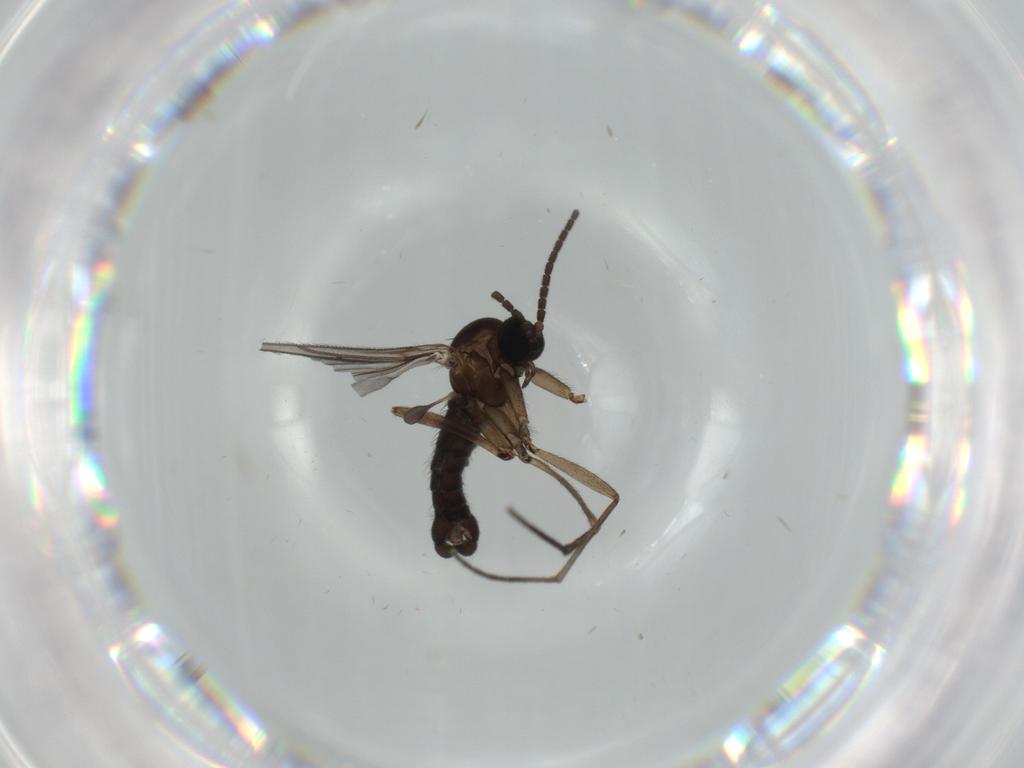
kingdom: Animalia
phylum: Arthropoda
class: Insecta
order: Diptera
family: Sciaridae
